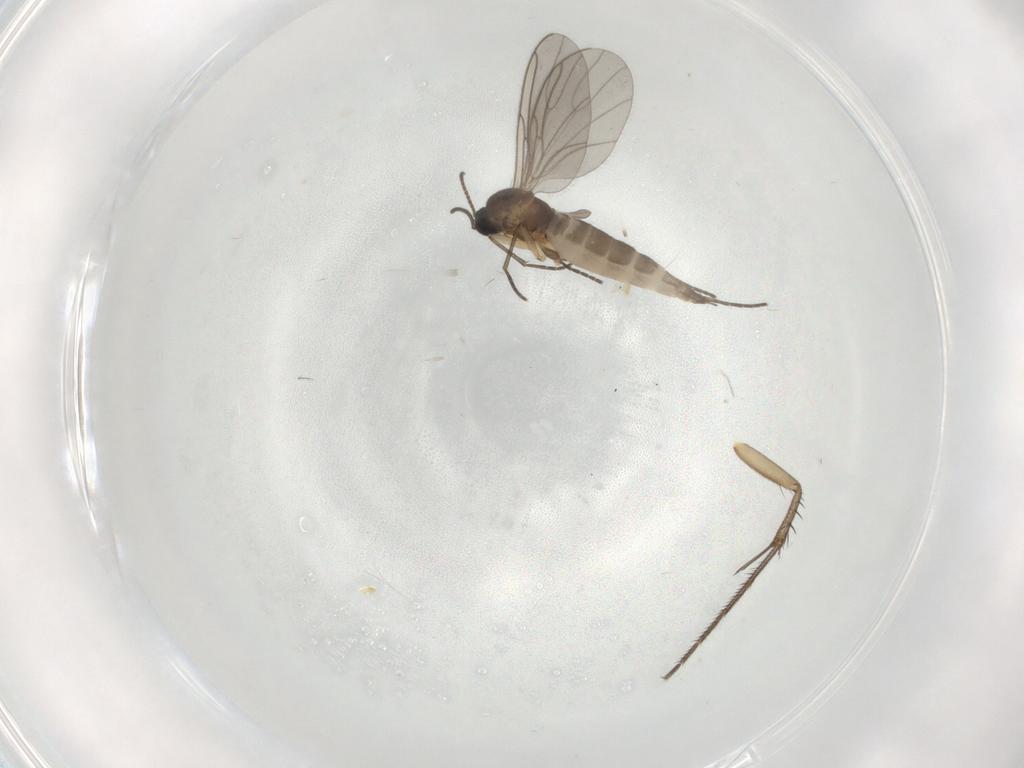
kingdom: Animalia
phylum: Arthropoda
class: Insecta
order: Diptera
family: Sciaridae
